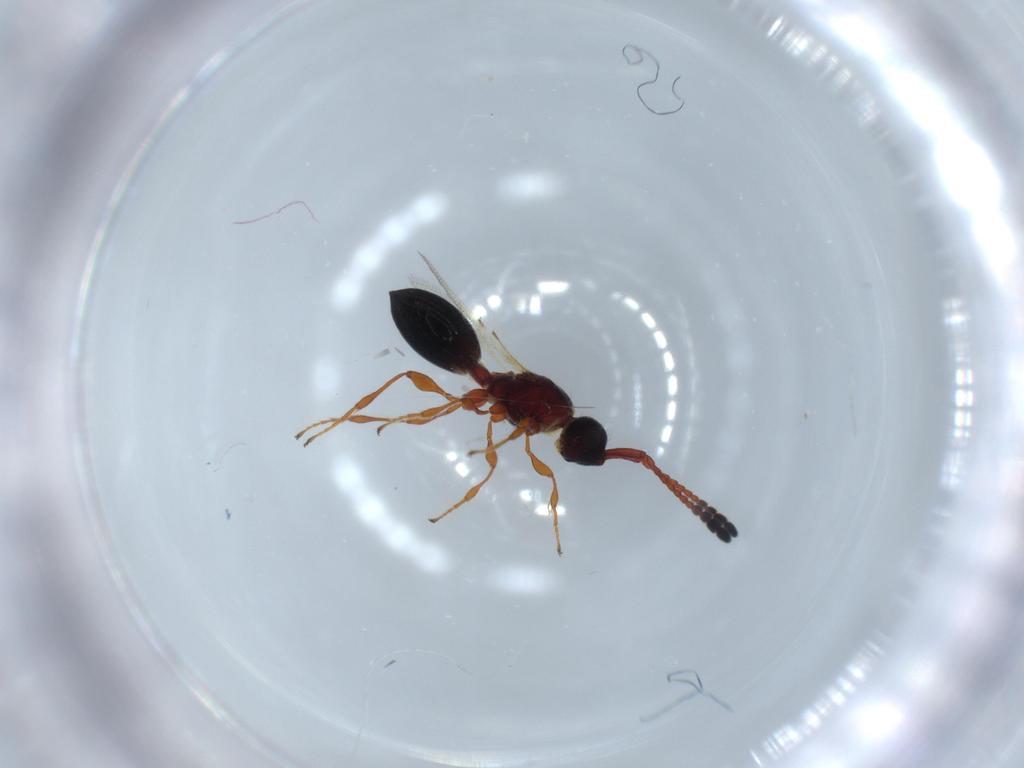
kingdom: Animalia
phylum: Arthropoda
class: Insecta
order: Hymenoptera
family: Diapriidae
